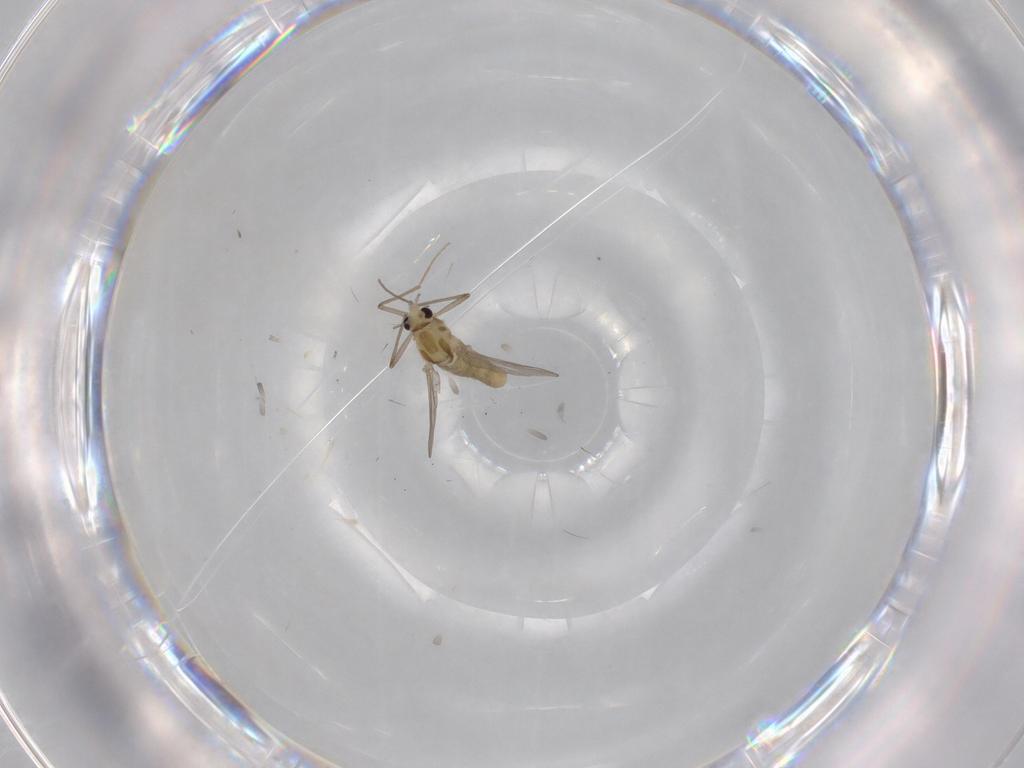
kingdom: Animalia
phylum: Arthropoda
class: Insecta
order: Diptera
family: Chironomidae
